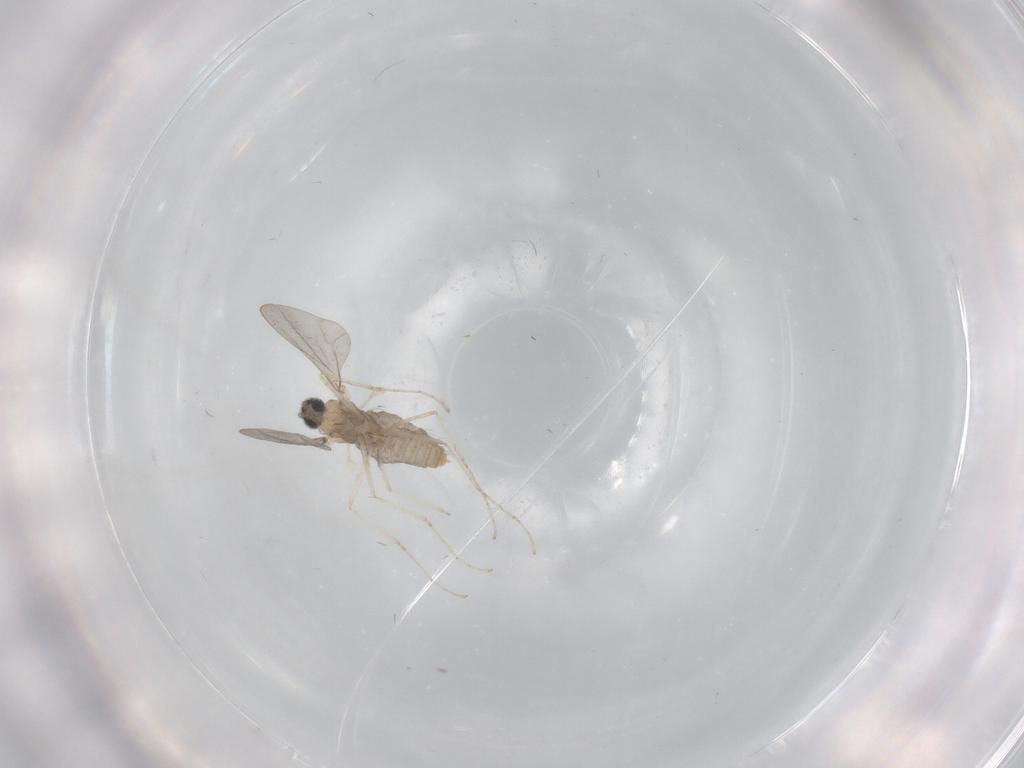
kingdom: Animalia
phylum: Arthropoda
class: Insecta
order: Diptera
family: Cecidomyiidae
